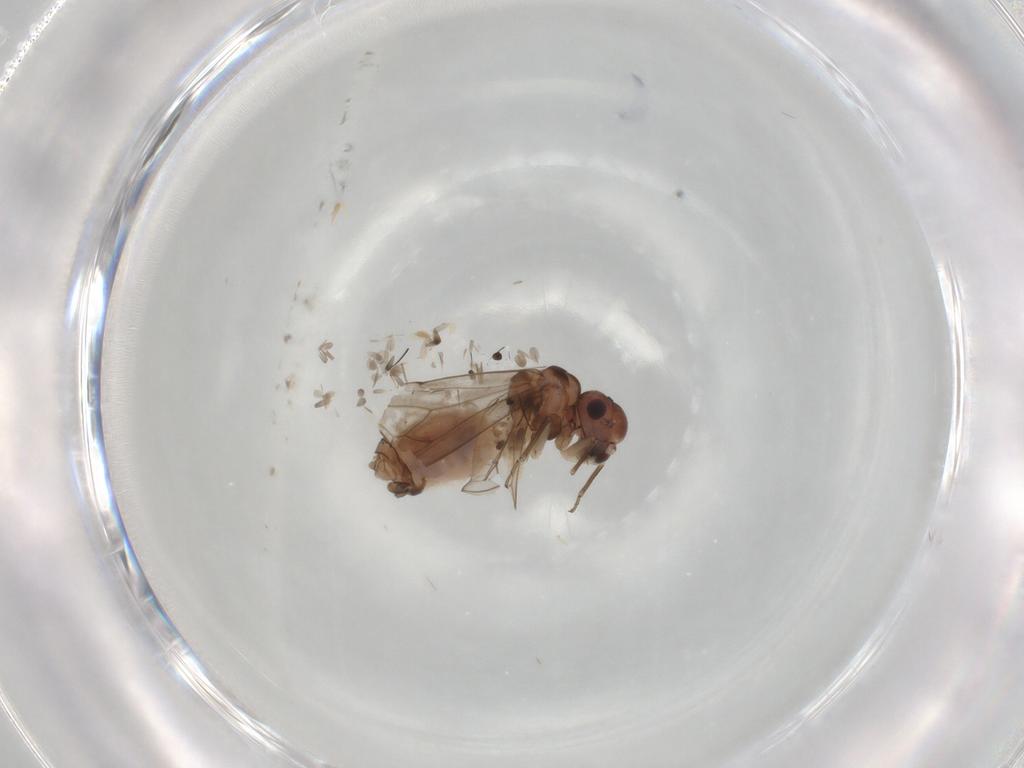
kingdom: Animalia
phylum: Arthropoda
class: Insecta
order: Psocodea
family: Peripsocidae
